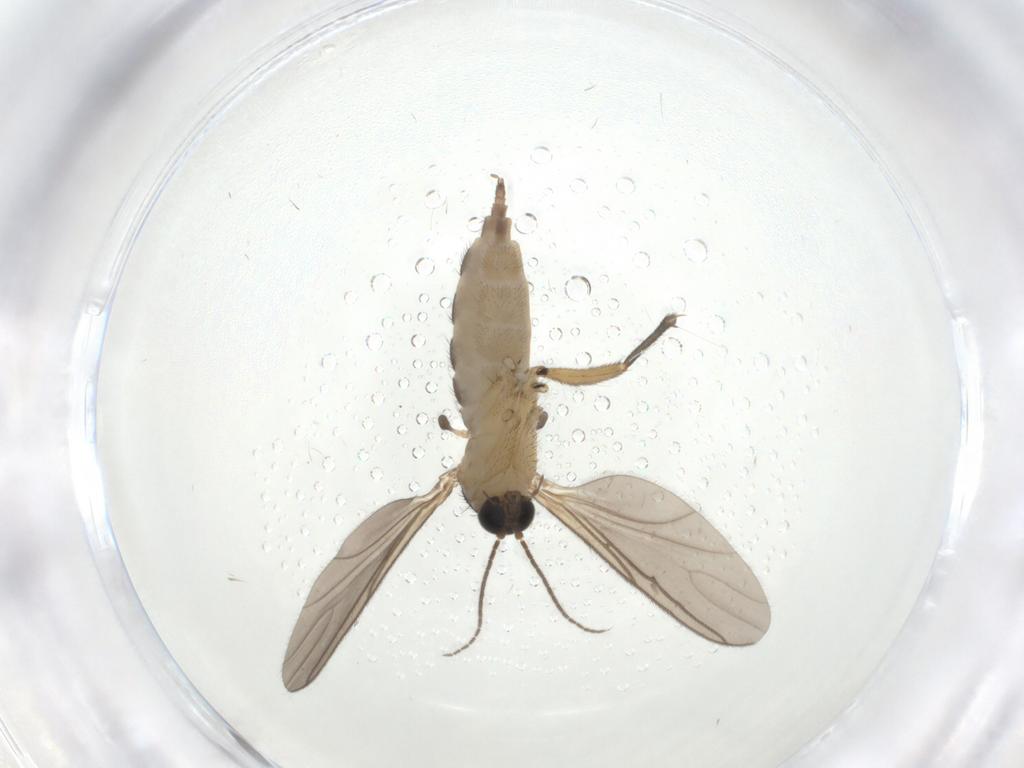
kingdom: Animalia
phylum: Arthropoda
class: Insecta
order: Diptera
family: Sciaridae
